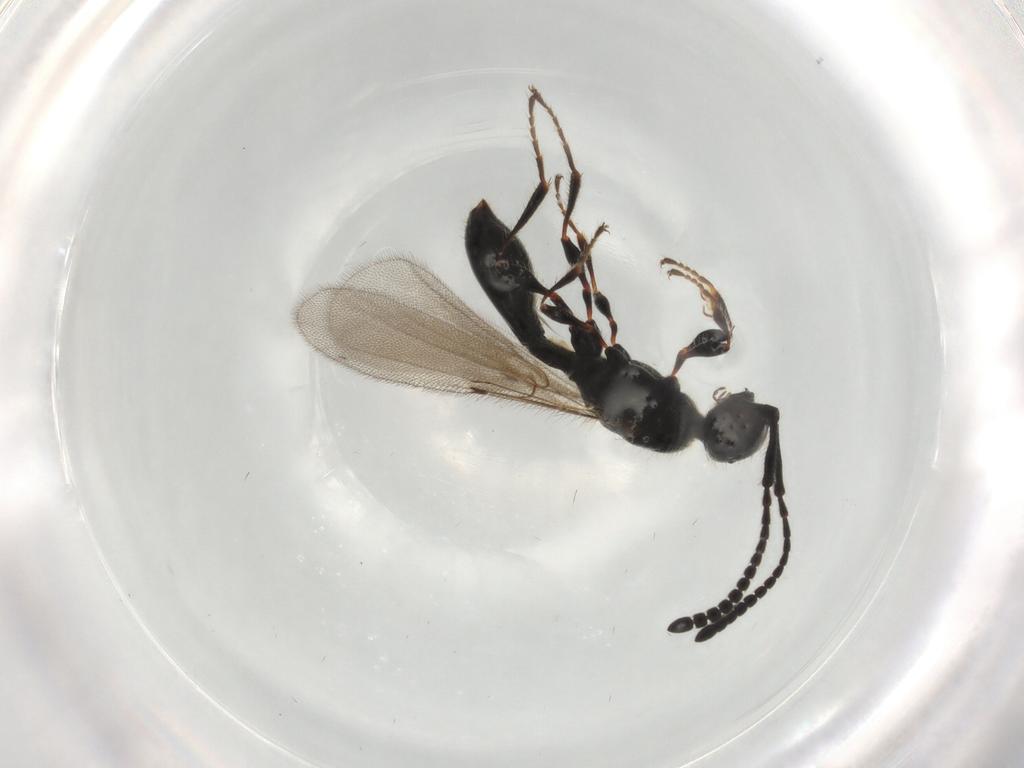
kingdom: Animalia
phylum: Arthropoda
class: Insecta
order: Hymenoptera
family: Diapriidae
